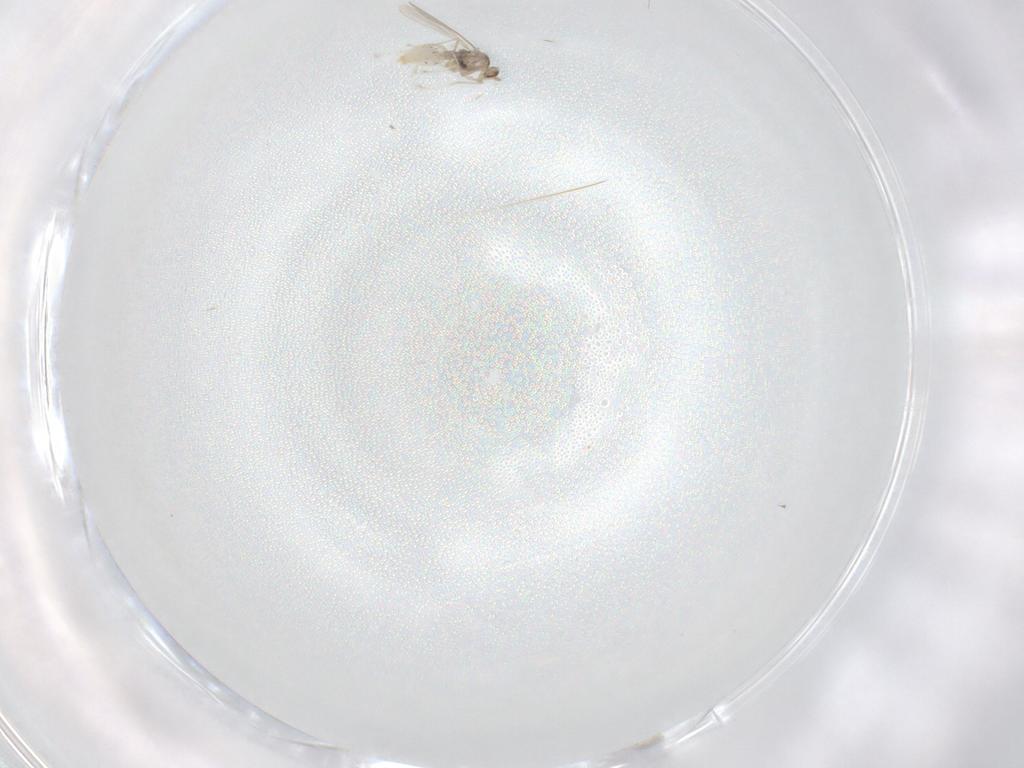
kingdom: Animalia
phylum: Arthropoda
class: Insecta
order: Diptera
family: Cecidomyiidae
